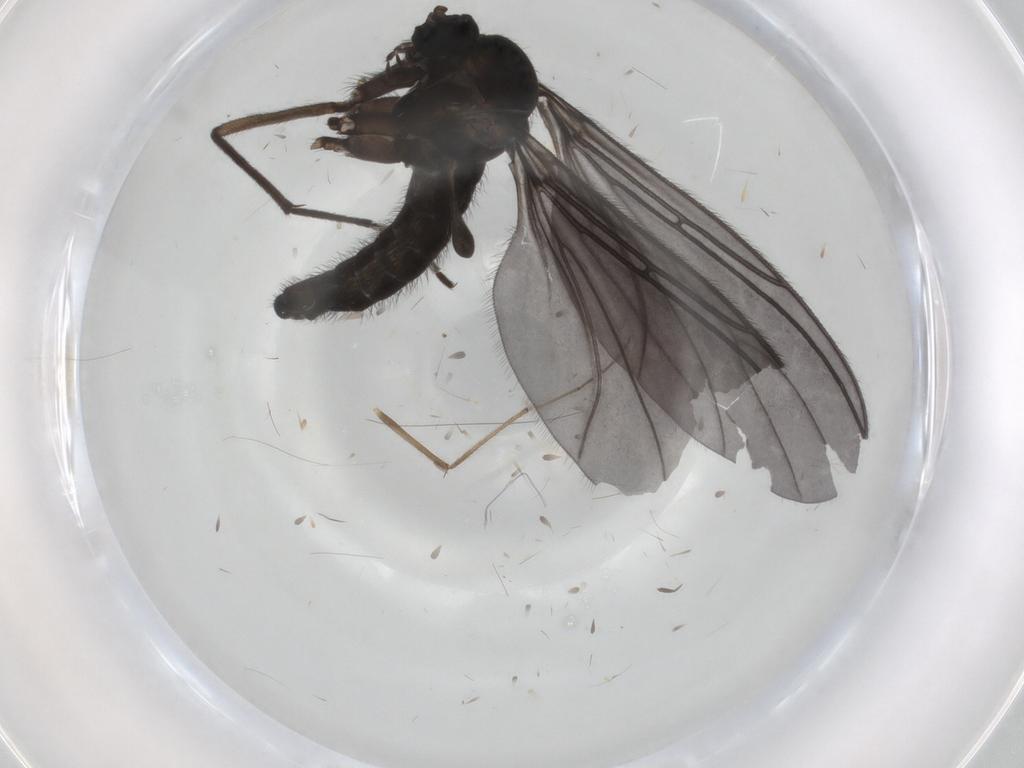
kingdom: Animalia
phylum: Arthropoda
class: Insecta
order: Diptera
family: Sciaridae
